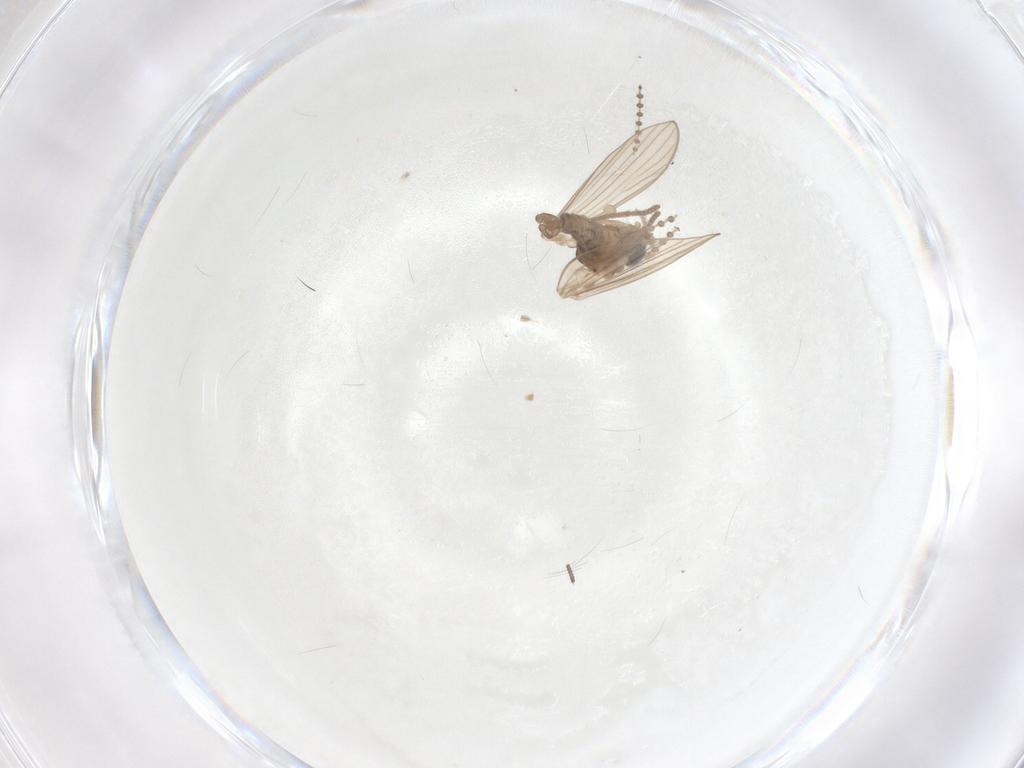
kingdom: Animalia
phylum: Arthropoda
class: Insecta
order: Diptera
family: Psychodidae
